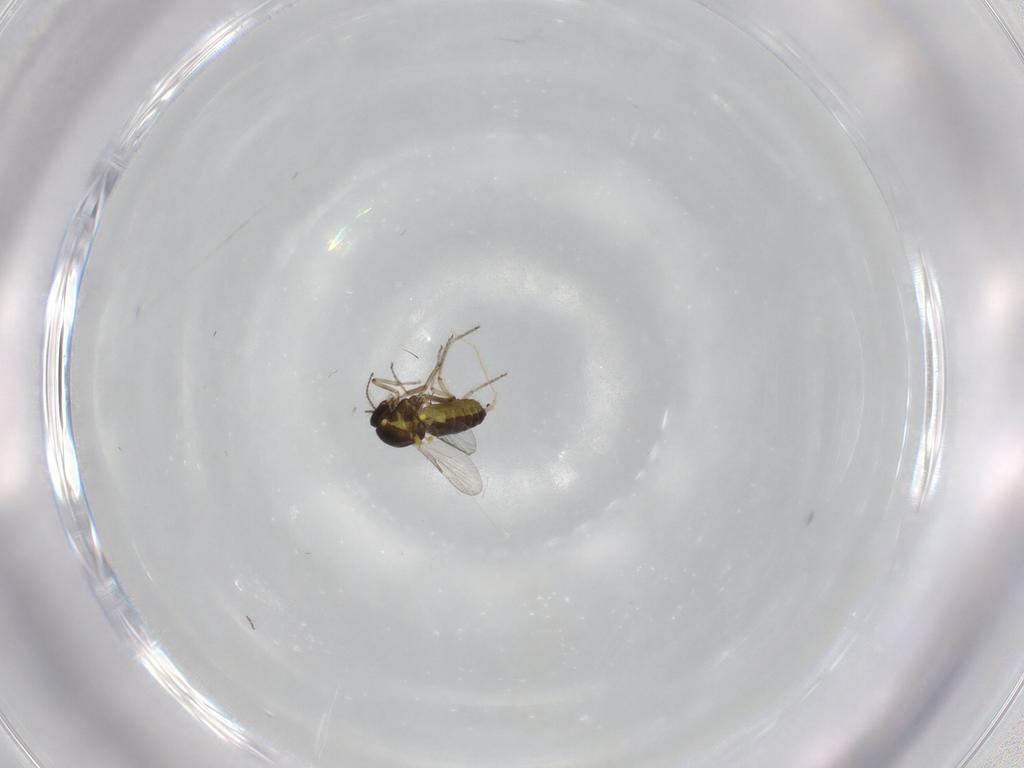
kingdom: Animalia
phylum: Arthropoda
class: Insecta
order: Diptera
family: Ceratopogonidae
